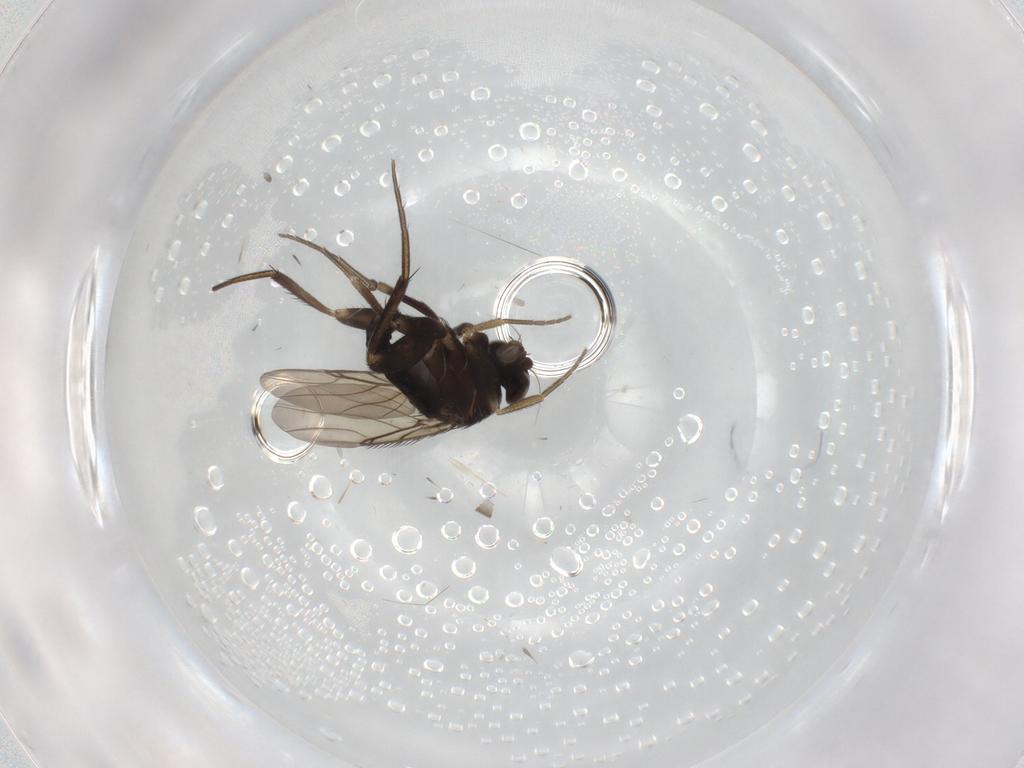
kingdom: Animalia
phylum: Arthropoda
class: Insecta
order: Diptera
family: Phoridae
